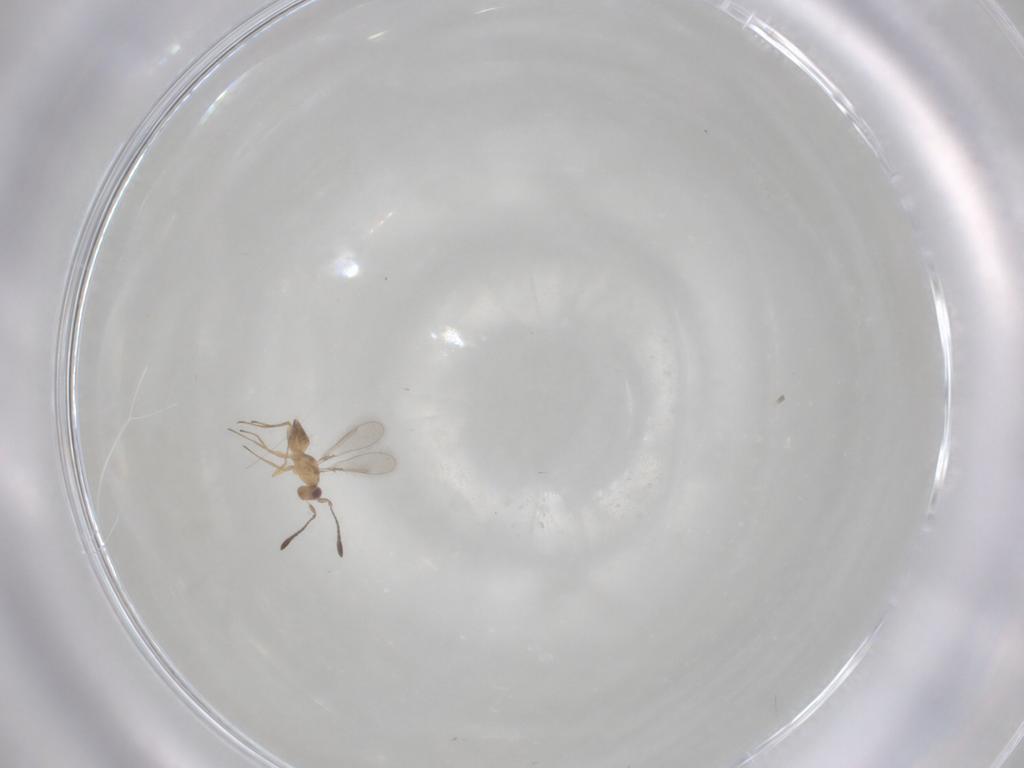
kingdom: Animalia
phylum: Arthropoda
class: Insecta
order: Hymenoptera
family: Mymaridae
